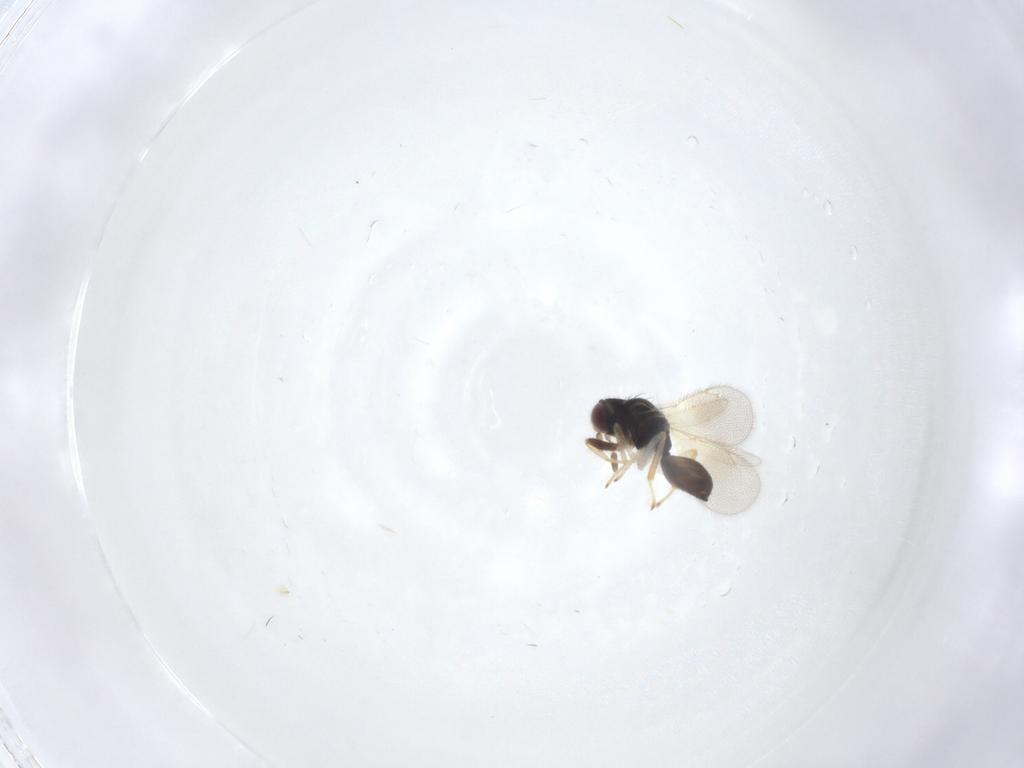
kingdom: Animalia
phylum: Arthropoda
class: Insecta
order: Hymenoptera
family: Eulophidae
